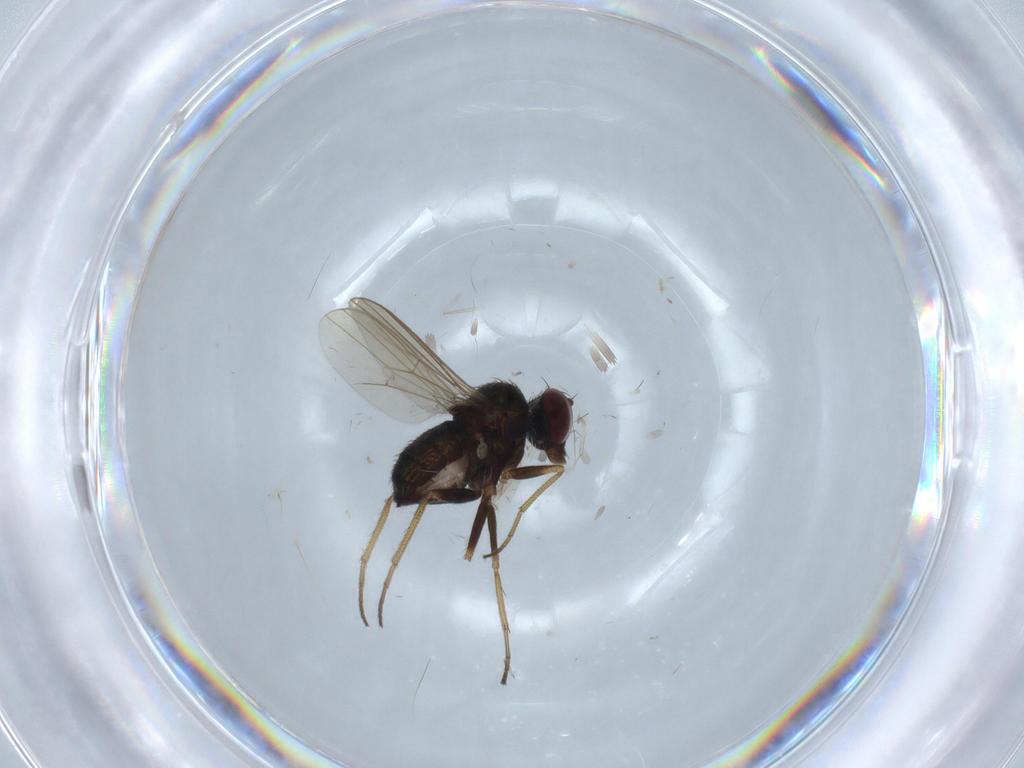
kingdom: Animalia
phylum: Arthropoda
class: Insecta
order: Diptera
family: Dolichopodidae
